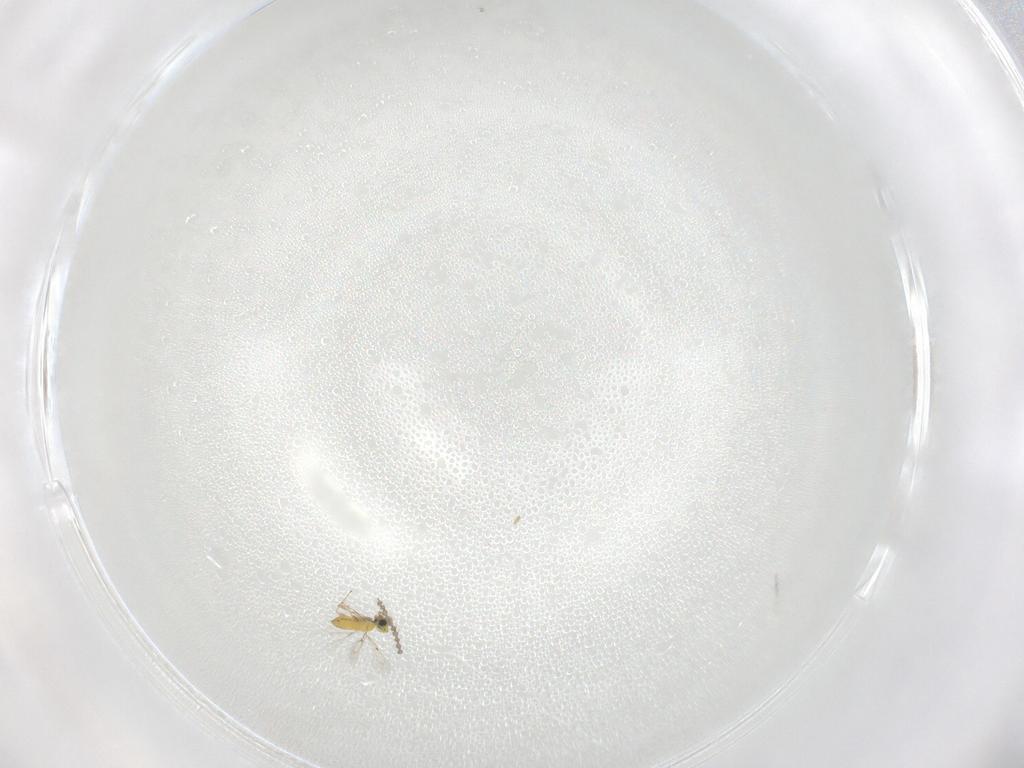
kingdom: Animalia
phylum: Arthropoda
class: Insecta
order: Hymenoptera
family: Trichogrammatidae
